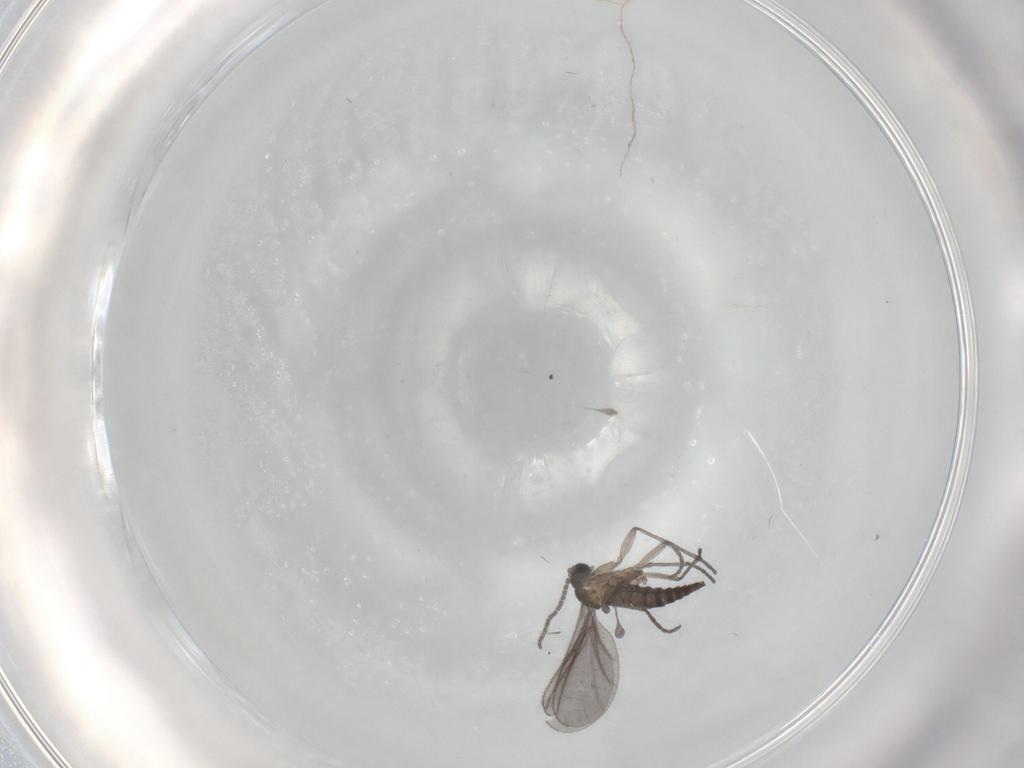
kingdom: Animalia
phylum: Arthropoda
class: Insecta
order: Diptera
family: Sciaridae
